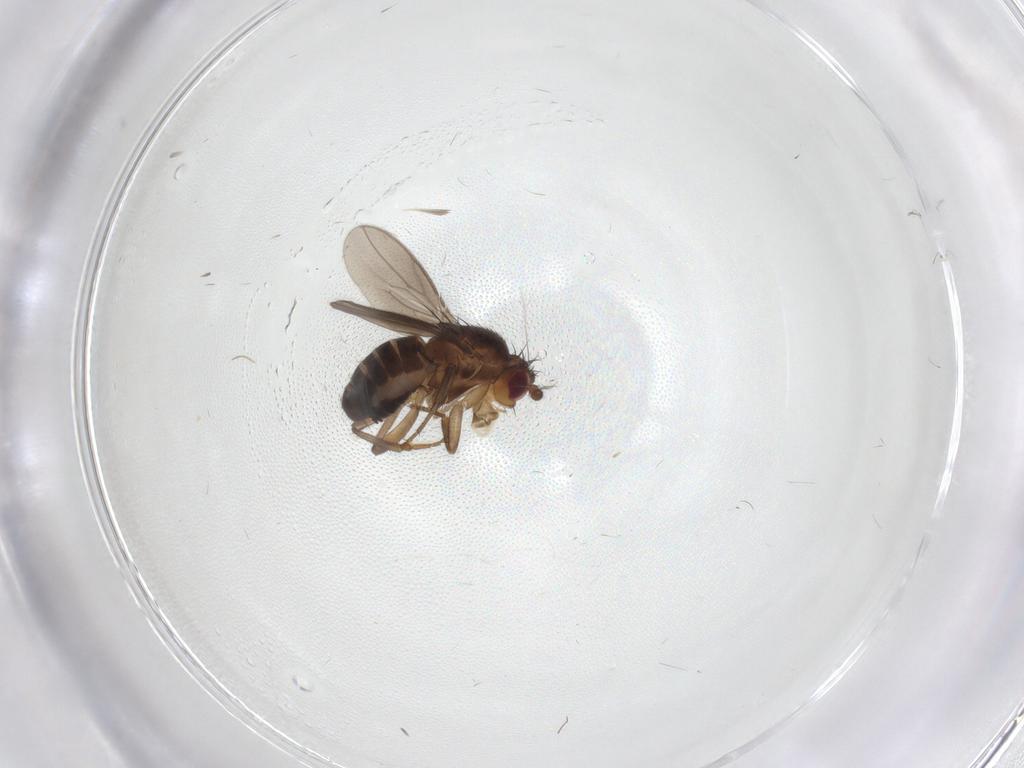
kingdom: Animalia
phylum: Arthropoda
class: Insecta
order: Diptera
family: Sphaeroceridae
